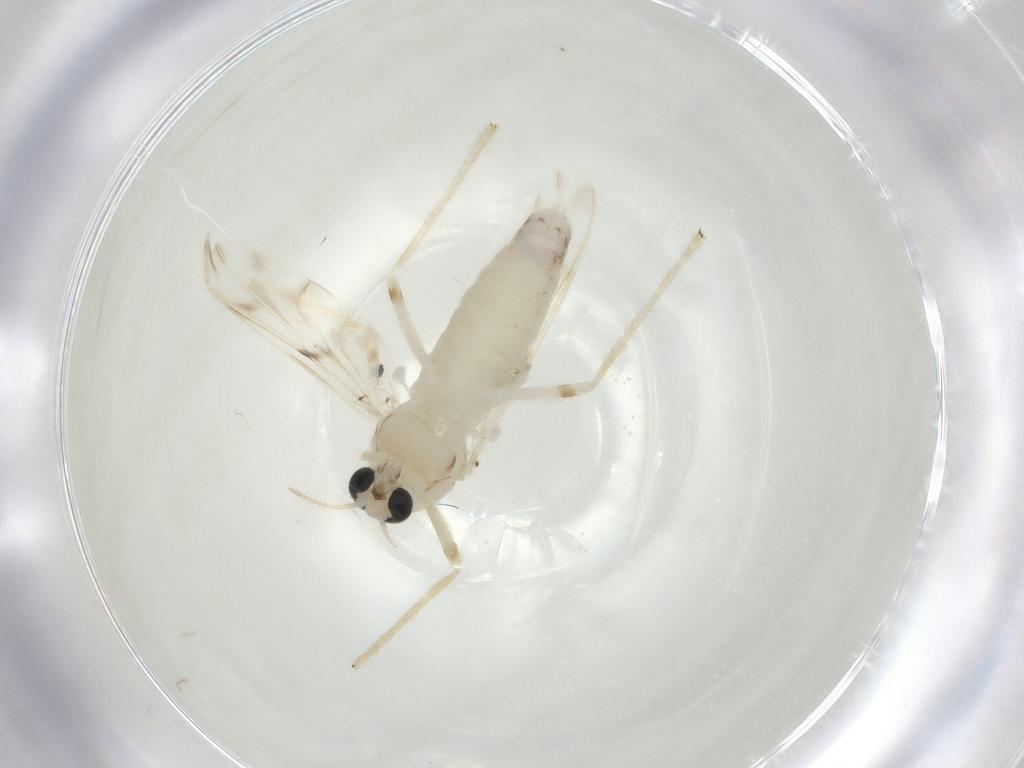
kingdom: Animalia
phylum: Arthropoda
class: Insecta
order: Diptera
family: Chironomidae
